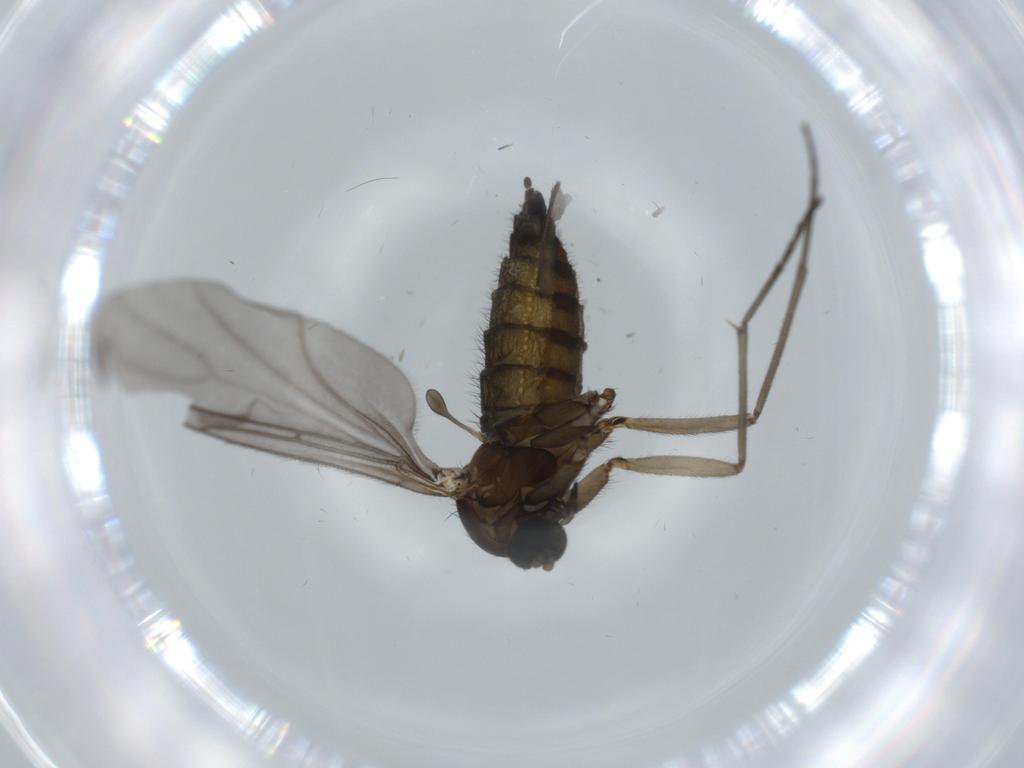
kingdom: Animalia
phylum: Arthropoda
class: Insecta
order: Diptera
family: Sciaridae
